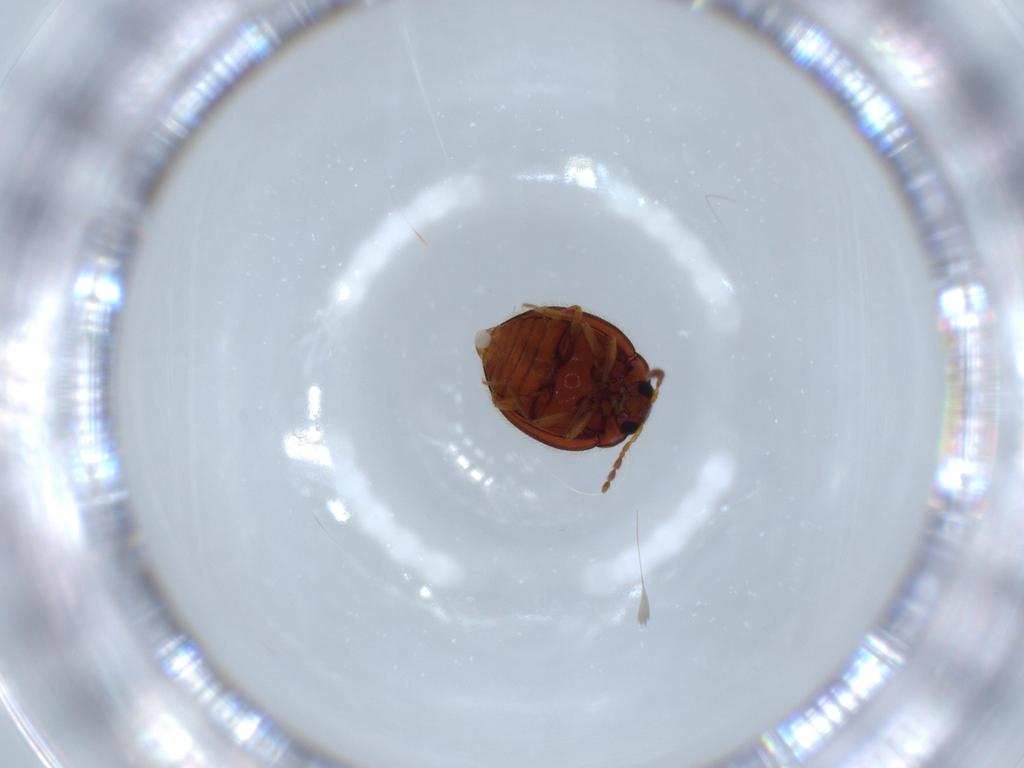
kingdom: Animalia
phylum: Arthropoda
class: Insecta
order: Coleoptera
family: Anamorphidae
